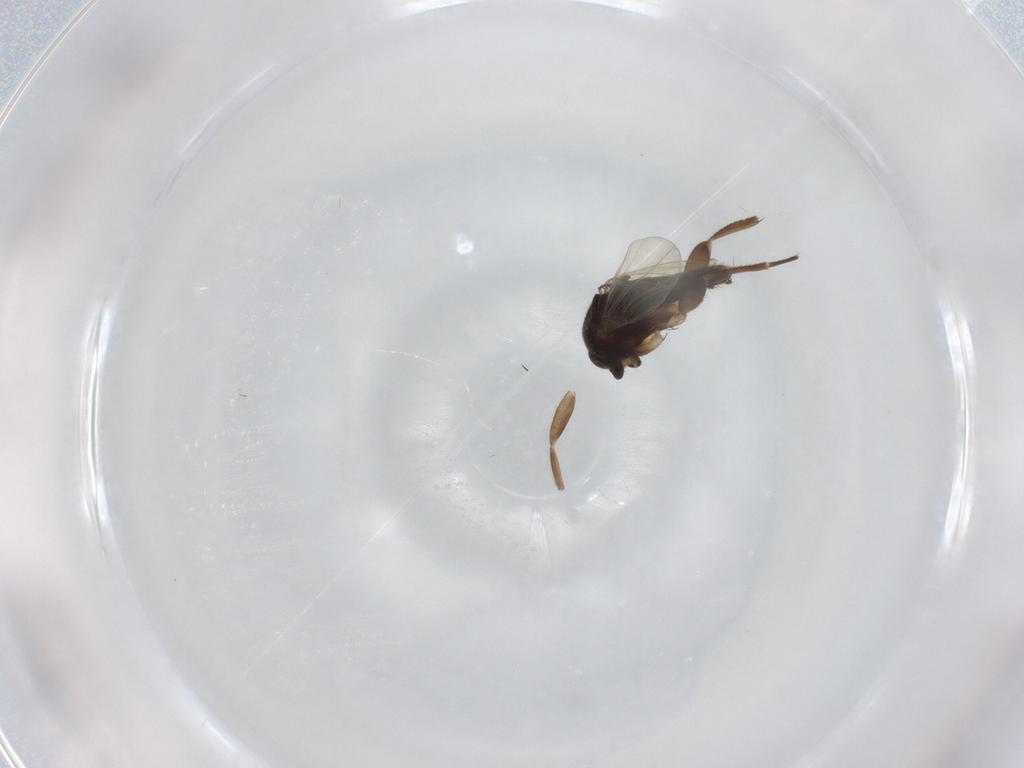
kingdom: Animalia
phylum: Arthropoda
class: Insecta
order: Diptera
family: Phoridae
